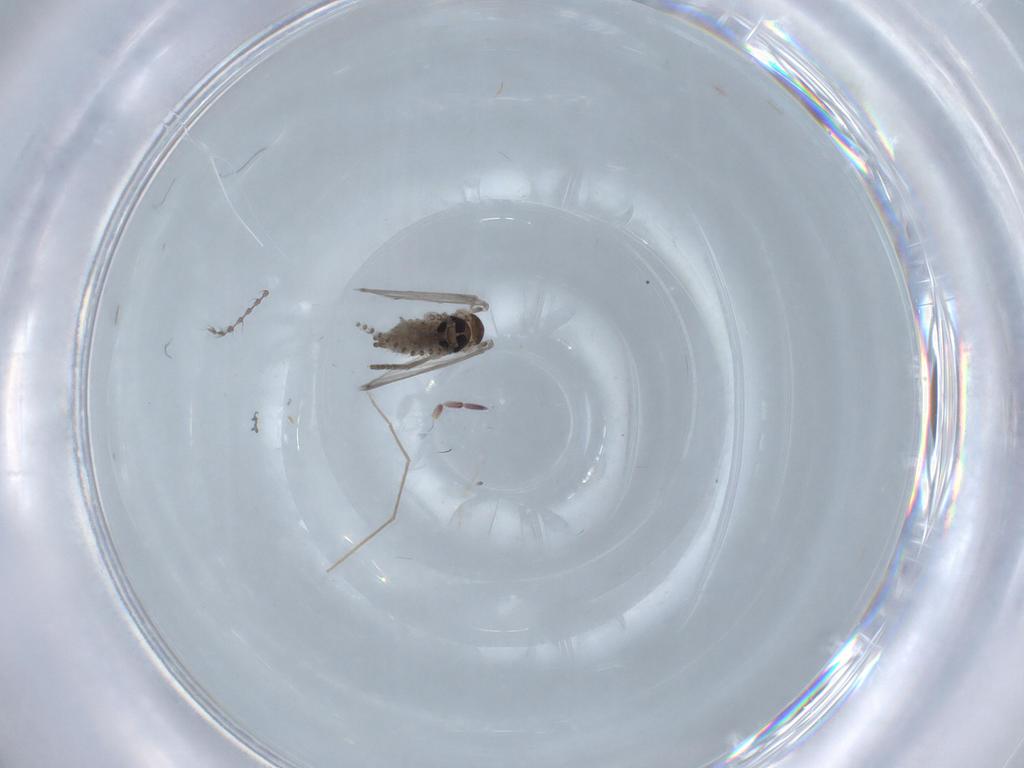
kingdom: Animalia
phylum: Arthropoda
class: Insecta
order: Diptera
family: Psychodidae
